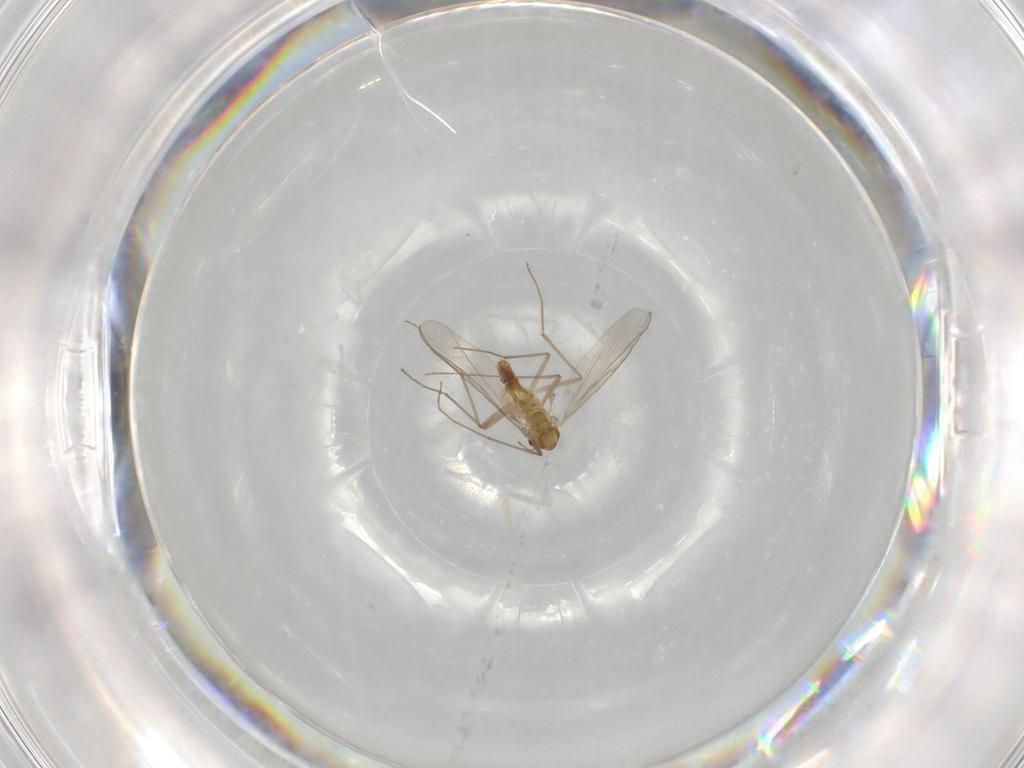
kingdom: Animalia
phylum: Arthropoda
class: Insecta
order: Diptera
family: Chironomidae
